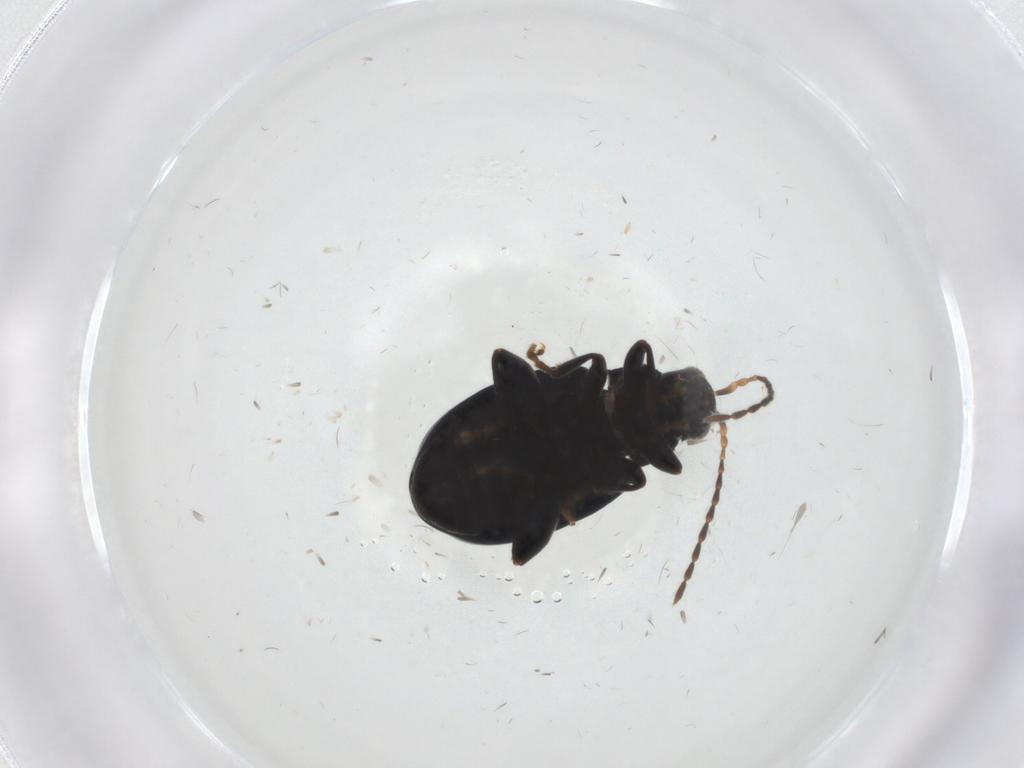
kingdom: Animalia
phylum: Arthropoda
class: Insecta
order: Coleoptera
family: Chrysomelidae
